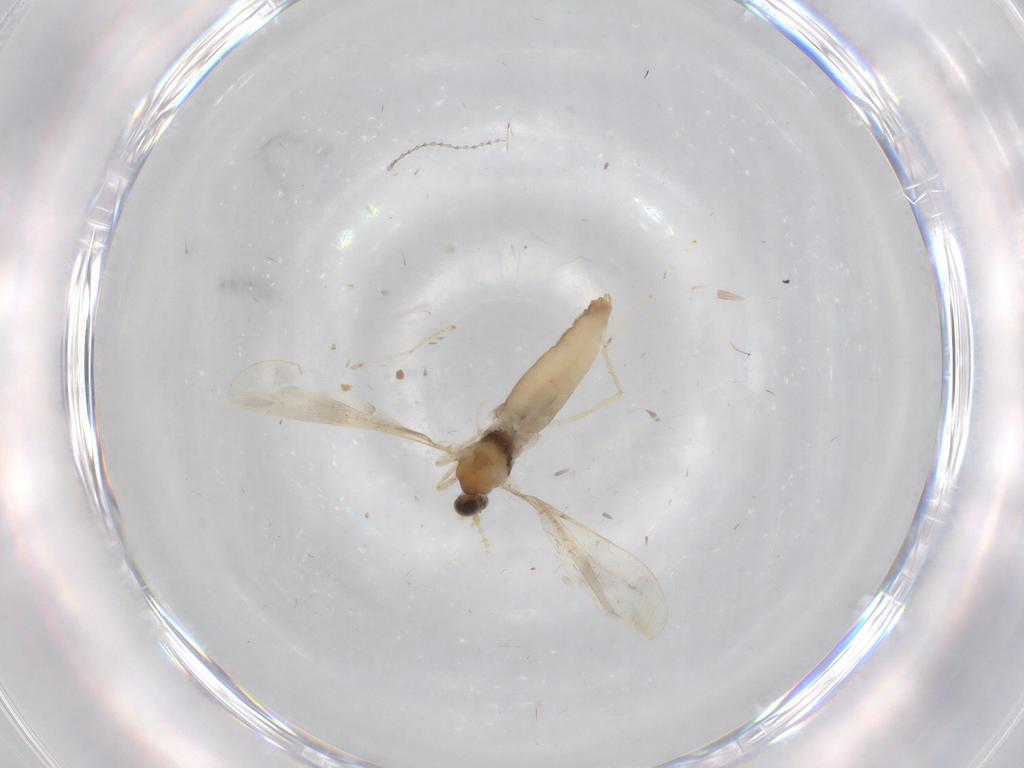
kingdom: Animalia
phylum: Arthropoda
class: Insecta
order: Diptera
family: Cecidomyiidae
